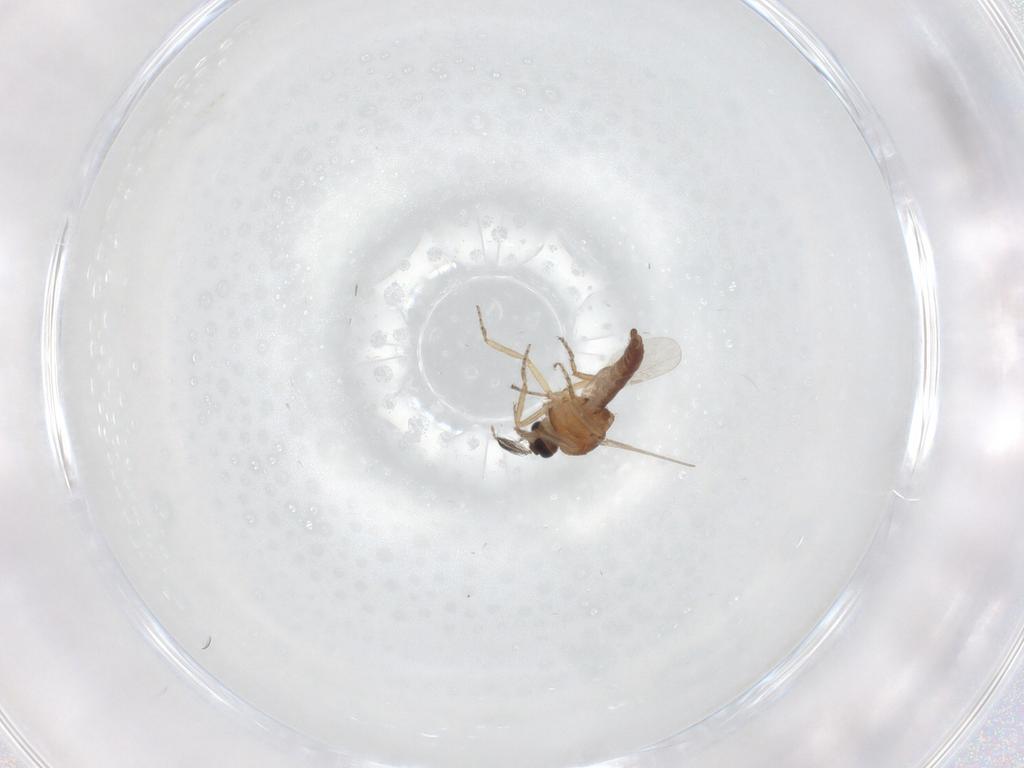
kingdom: Animalia
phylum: Arthropoda
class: Insecta
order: Diptera
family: Ceratopogonidae
